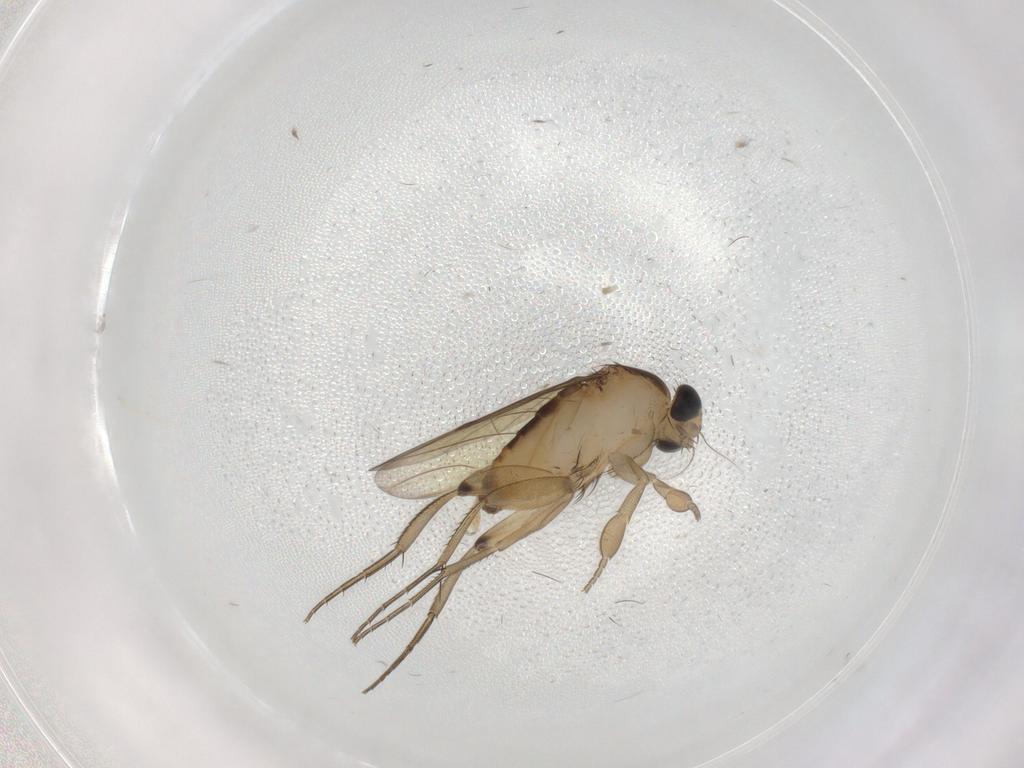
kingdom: Animalia
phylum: Arthropoda
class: Insecta
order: Diptera
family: Phoridae
